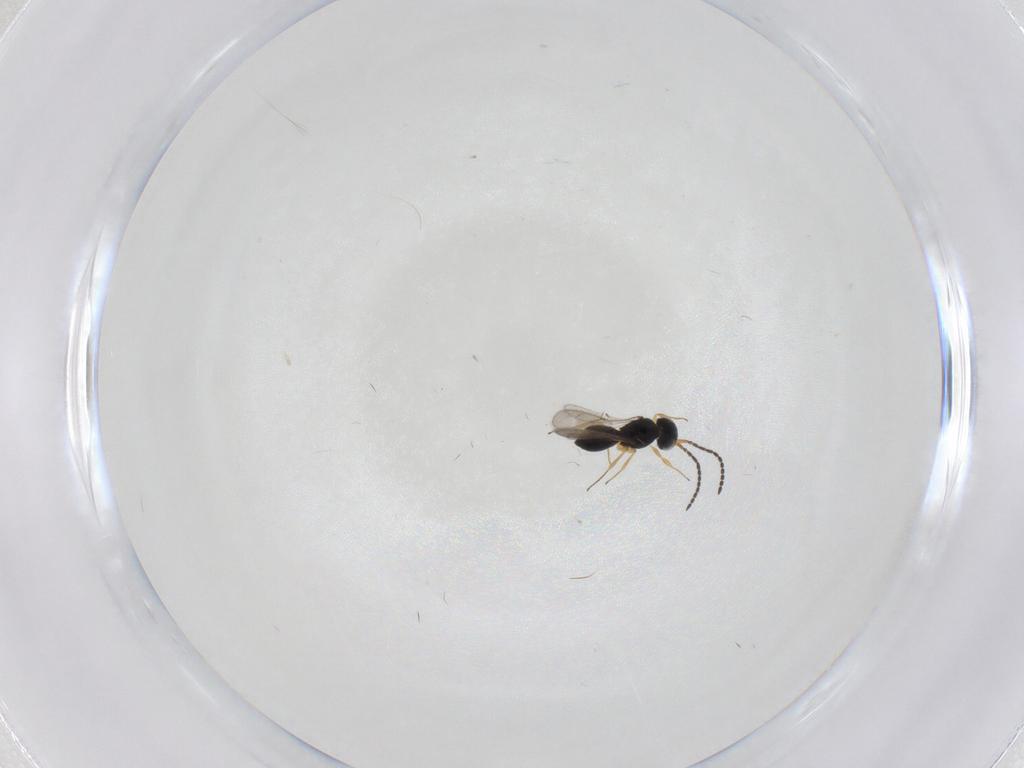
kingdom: Animalia
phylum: Arthropoda
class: Insecta
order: Hymenoptera
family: Scelionidae
